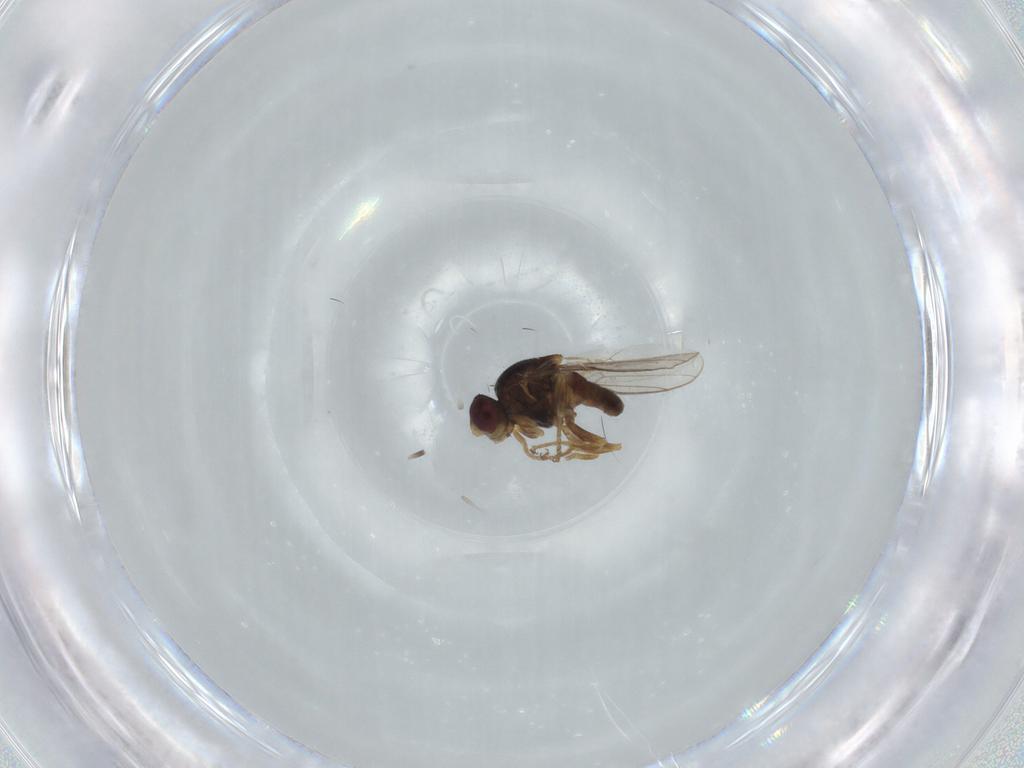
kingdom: Animalia
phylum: Arthropoda
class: Insecta
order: Diptera
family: Chloropidae
